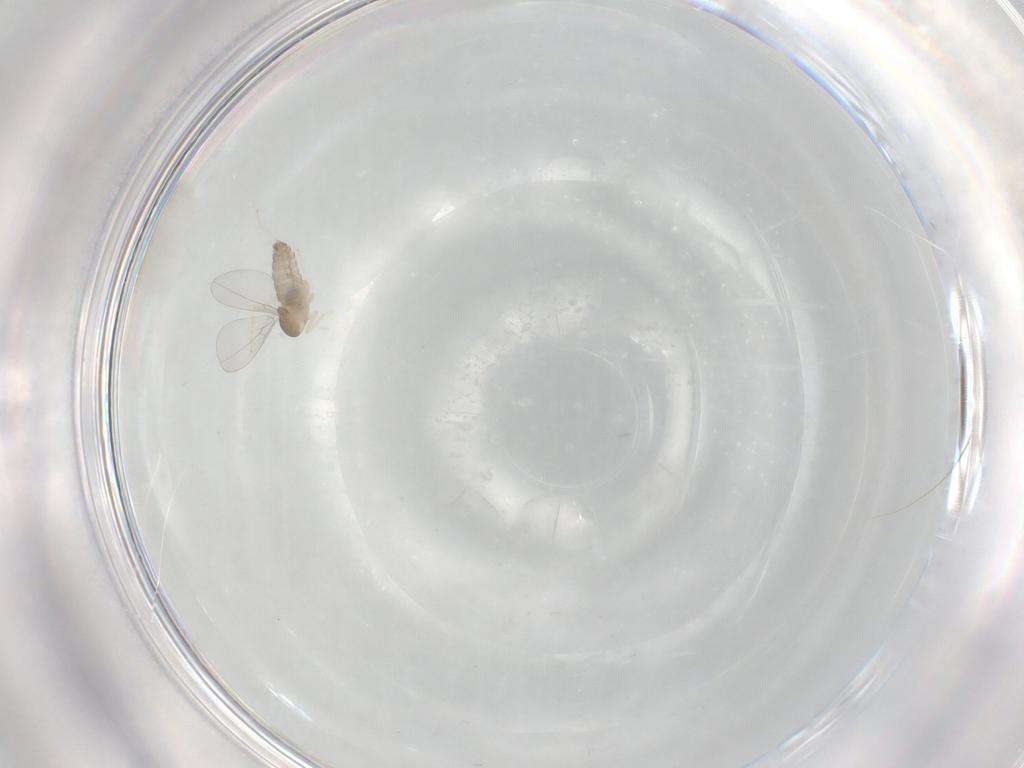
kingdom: Animalia
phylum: Arthropoda
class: Insecta
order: Diptera
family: Cecidomyiidae
